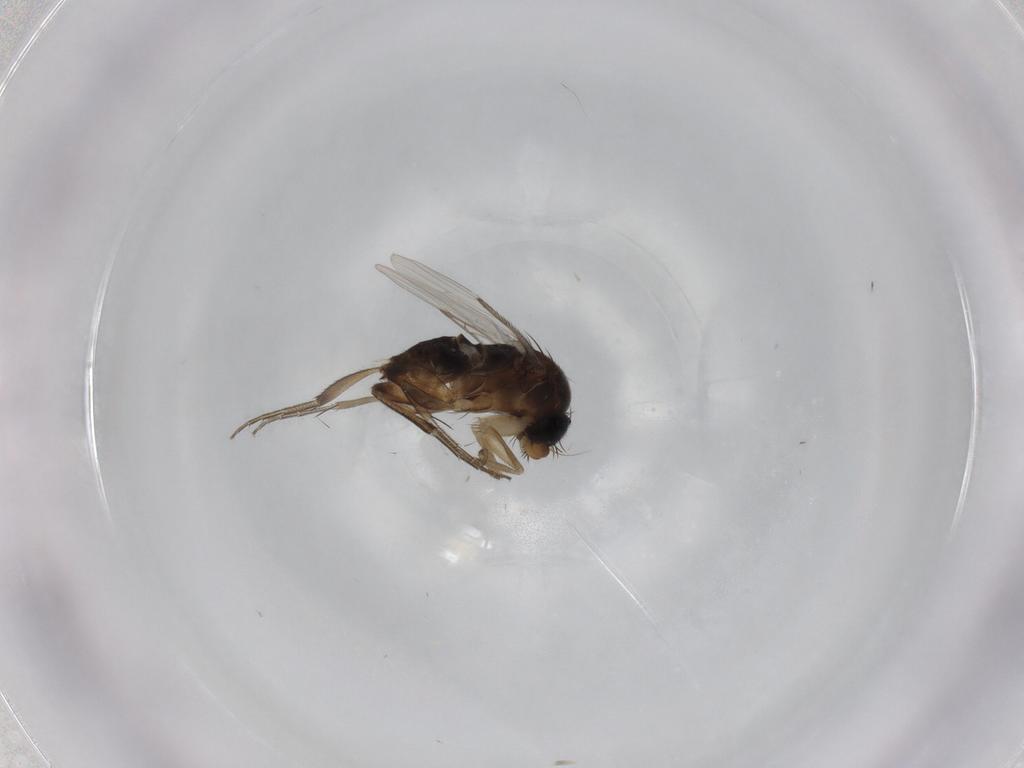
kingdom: Animalia
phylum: Arthropoda
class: Insecta
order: Diptera
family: Phoridae
